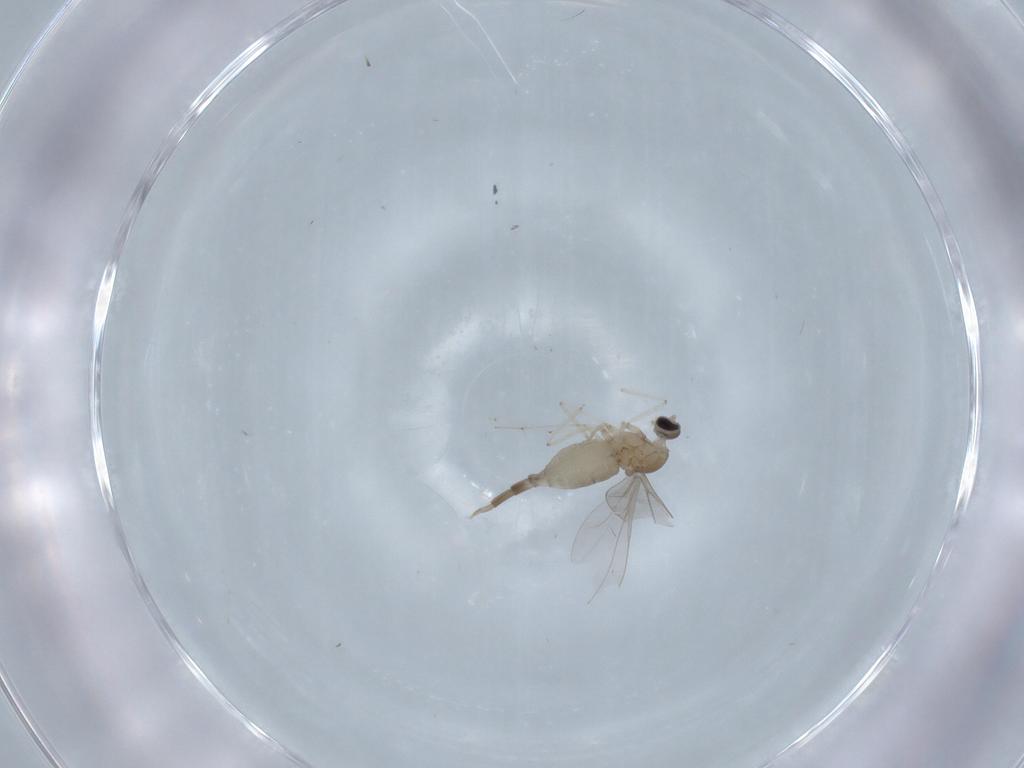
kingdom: Animalia
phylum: Arthropoda
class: Insecta
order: Diptera
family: Cecidomyiidae
